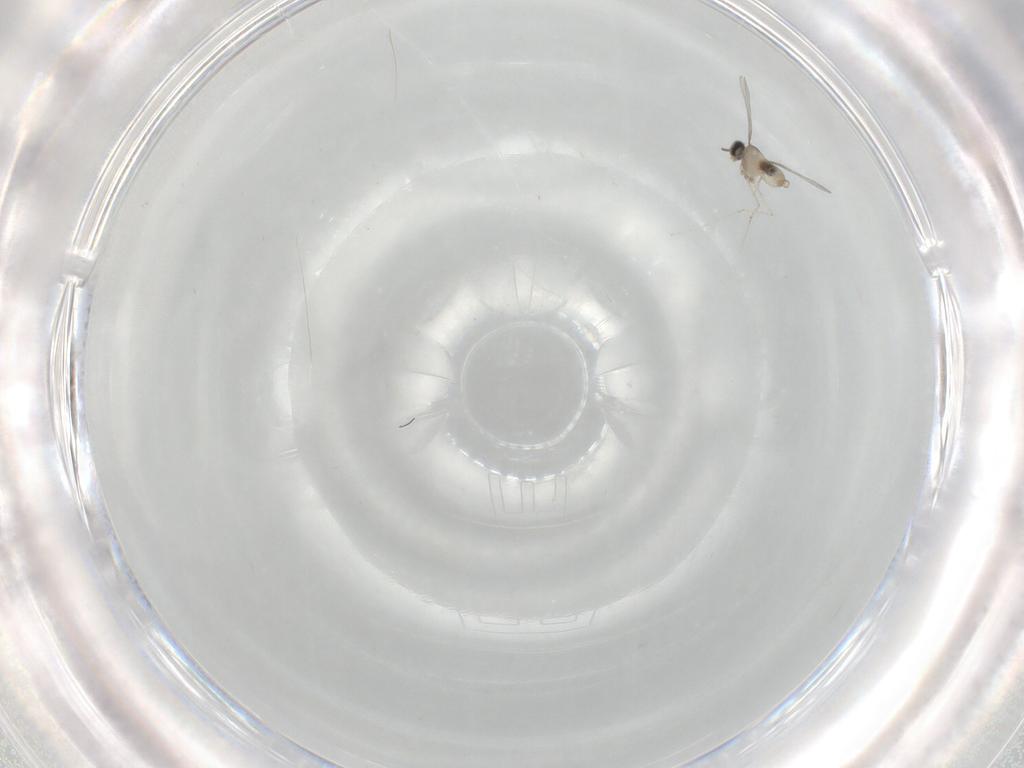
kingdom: Animalia
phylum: Arthropoda
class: Insecta
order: Diptera
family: Cecidomyiidae
